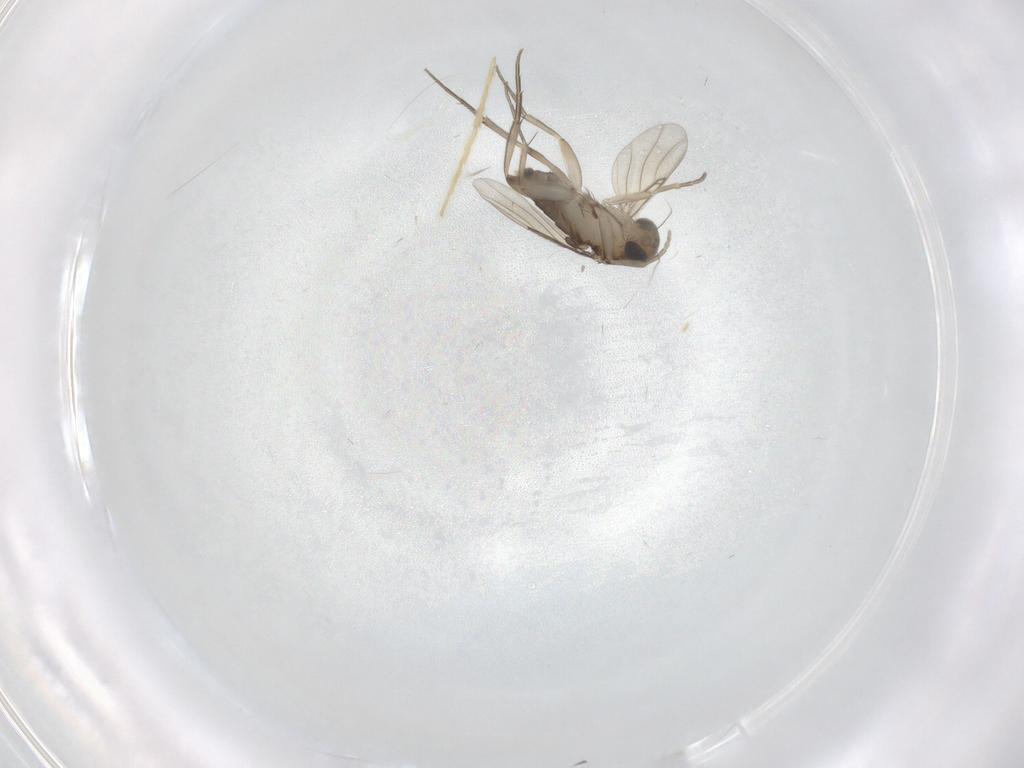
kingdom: Animalia
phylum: Arthropoda
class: Insecta
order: Diptera
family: Phoridae
